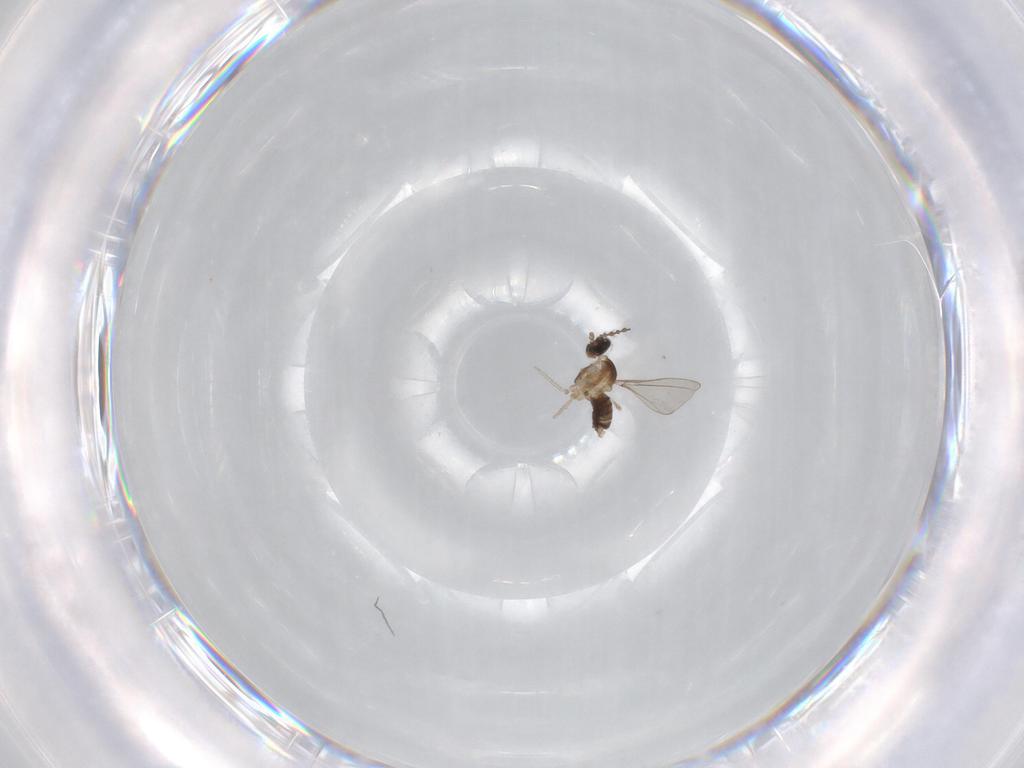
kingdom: Animalia
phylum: Arthropoda
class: Insecta
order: Diptera
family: Cecidomyiidae
